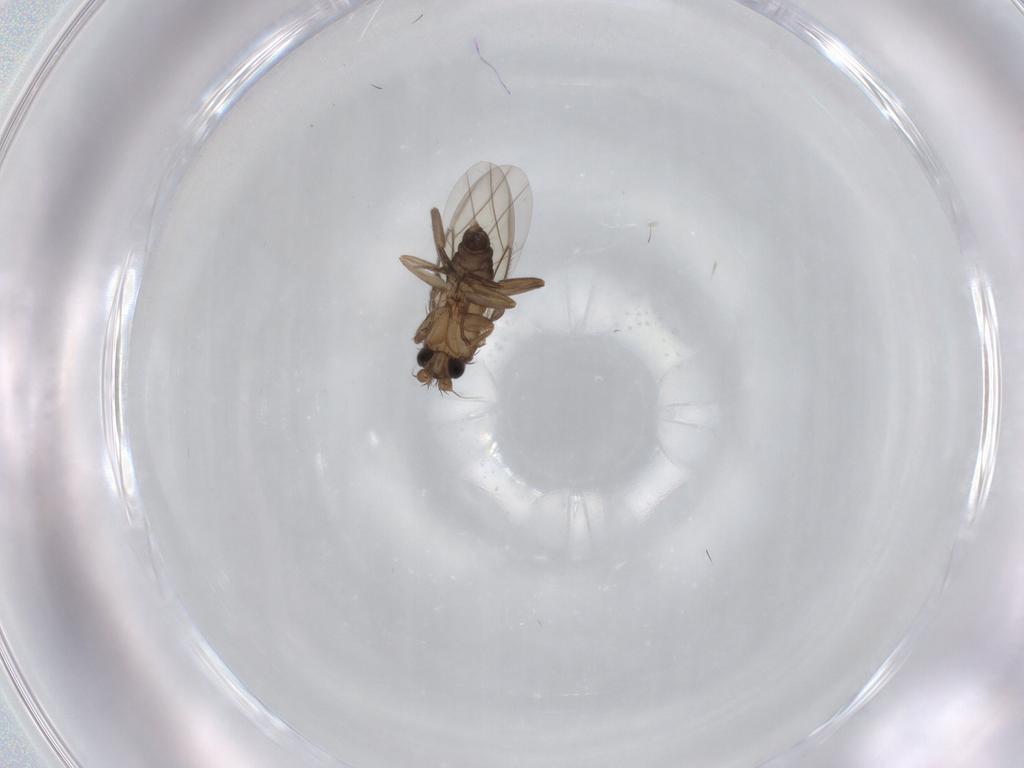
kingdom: Animalia
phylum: Arthropoda
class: Insecta
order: Diptera
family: Phoridae
